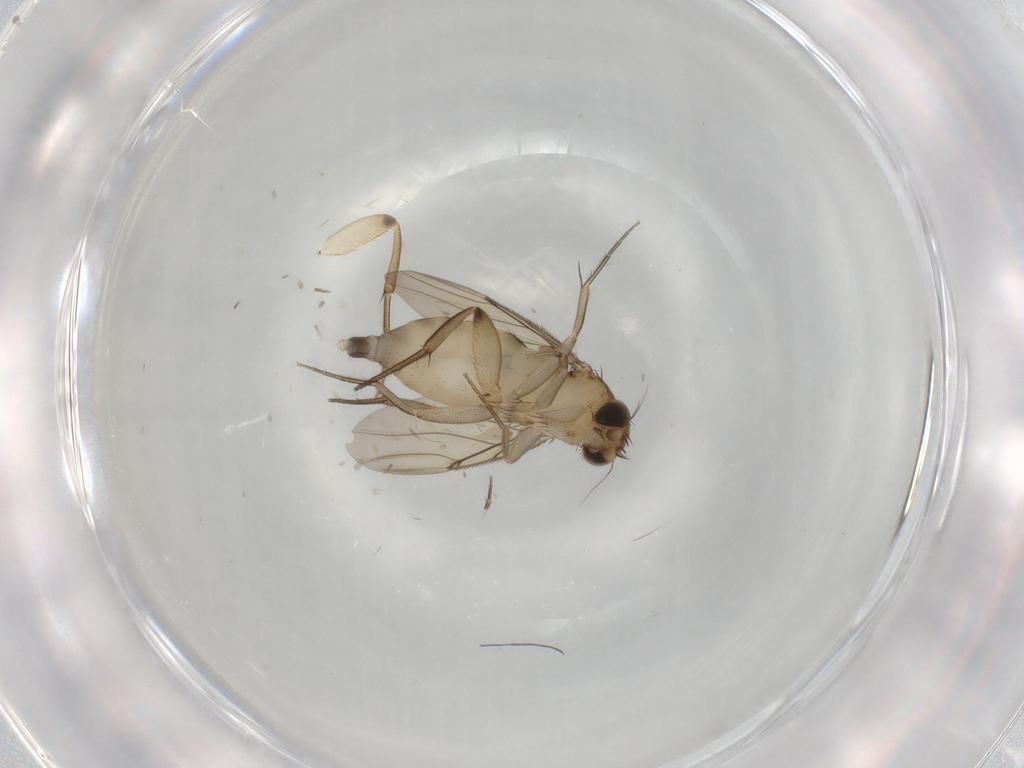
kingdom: Animalia
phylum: Arthropoda
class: Insecta
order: Diptera
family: Phoridae
